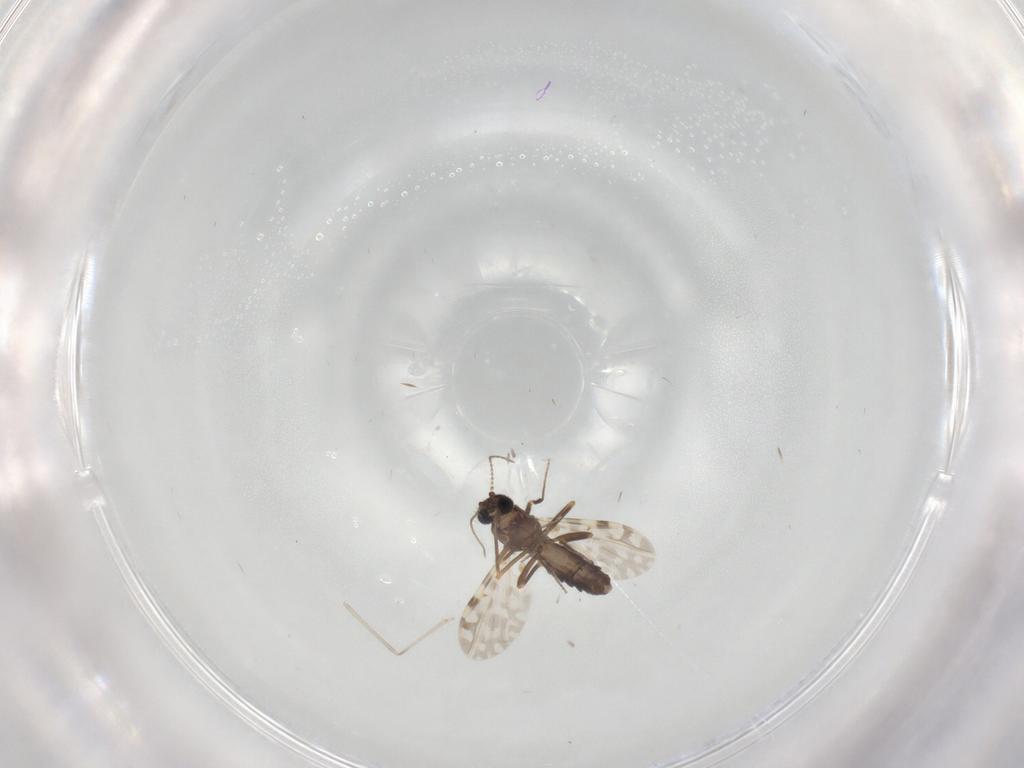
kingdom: Animalia
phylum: Arthropoda
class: Insecta
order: Diptera
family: Ceratopogonidae
